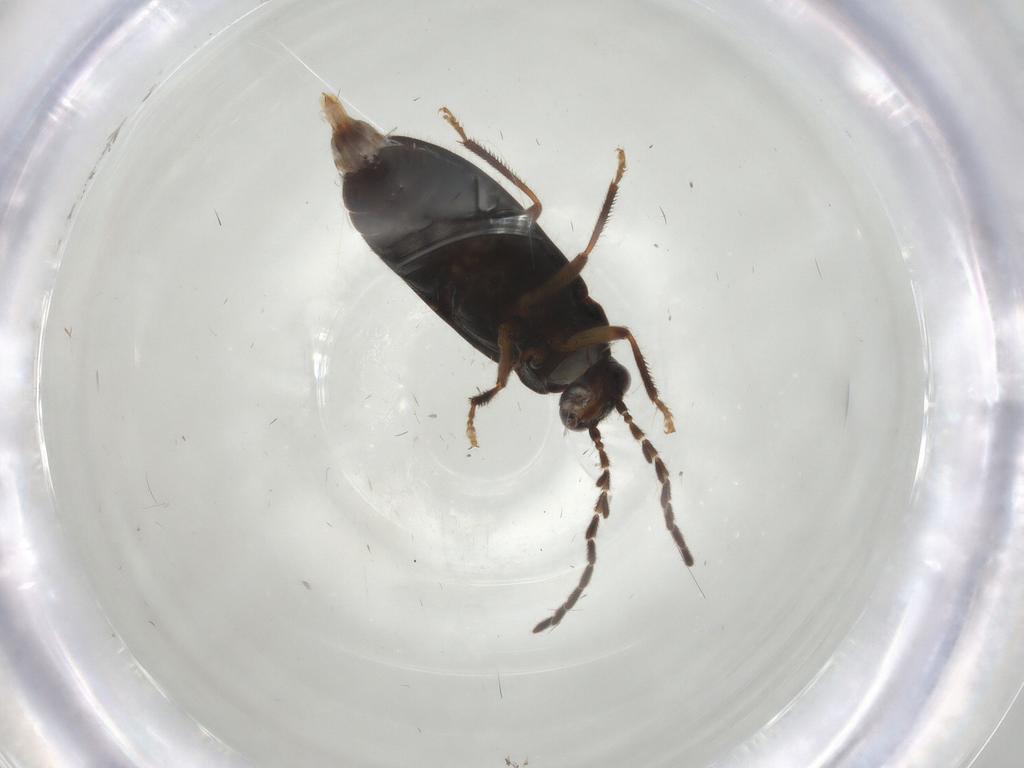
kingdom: Animalia
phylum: Arthropoda
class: Insecta
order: Coleoptera
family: Ptilodactylidae
